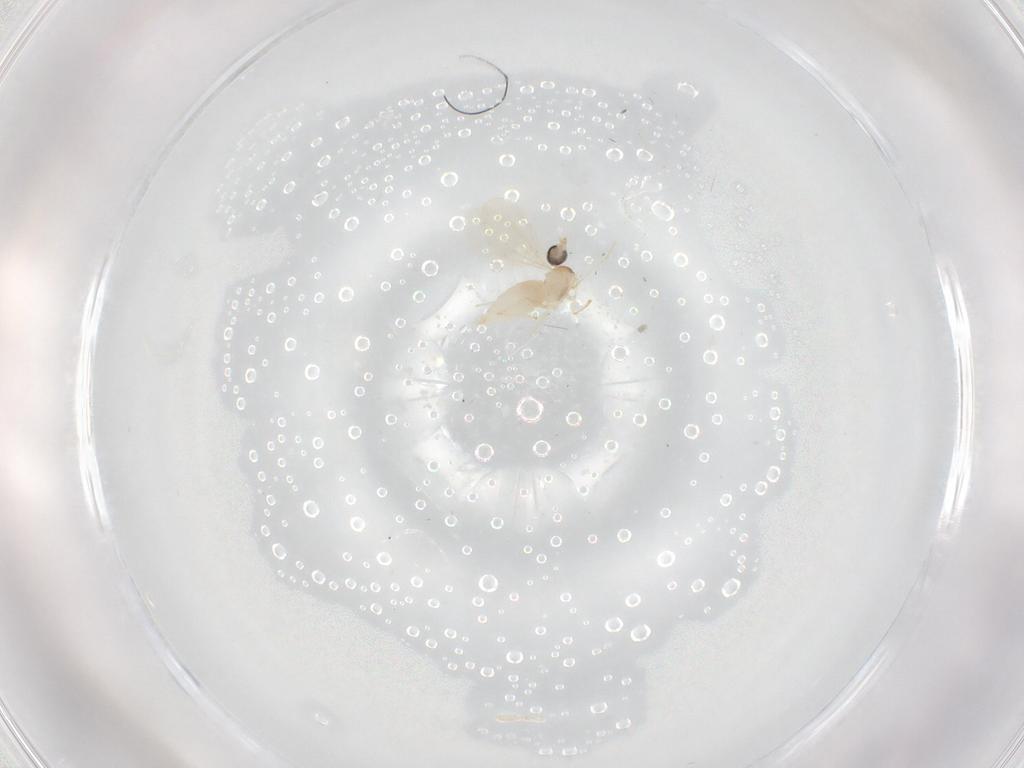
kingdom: Animalia
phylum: Arthropoda
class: Insecta
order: Diptera
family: Cecidomyiidae
